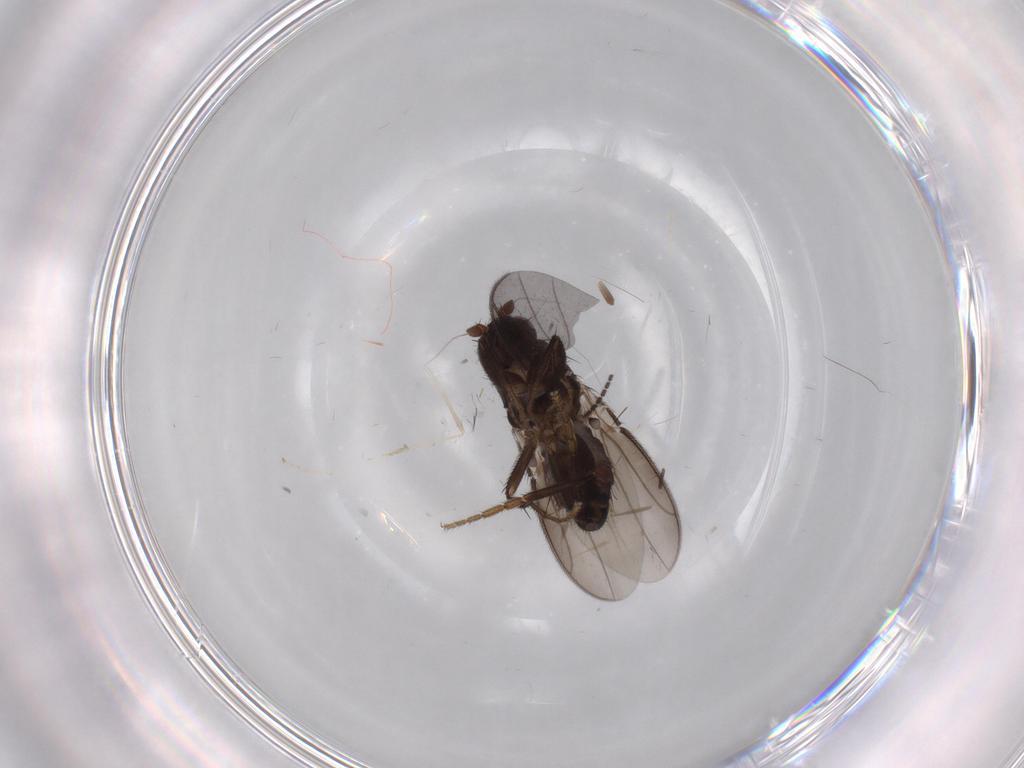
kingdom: Animalia
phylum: Arthropoda
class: Insecta
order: Diptera
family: Sphaeroceridae
